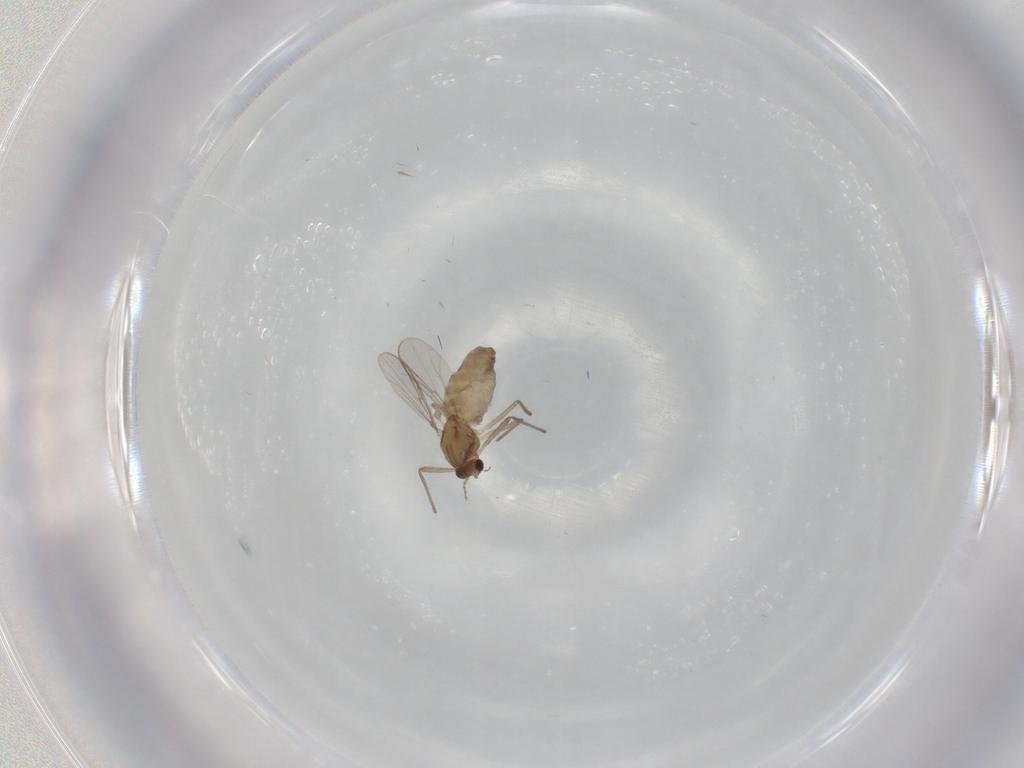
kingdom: Animalia
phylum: Arthropoda
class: Insecta
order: Diptera
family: Chironomidae
